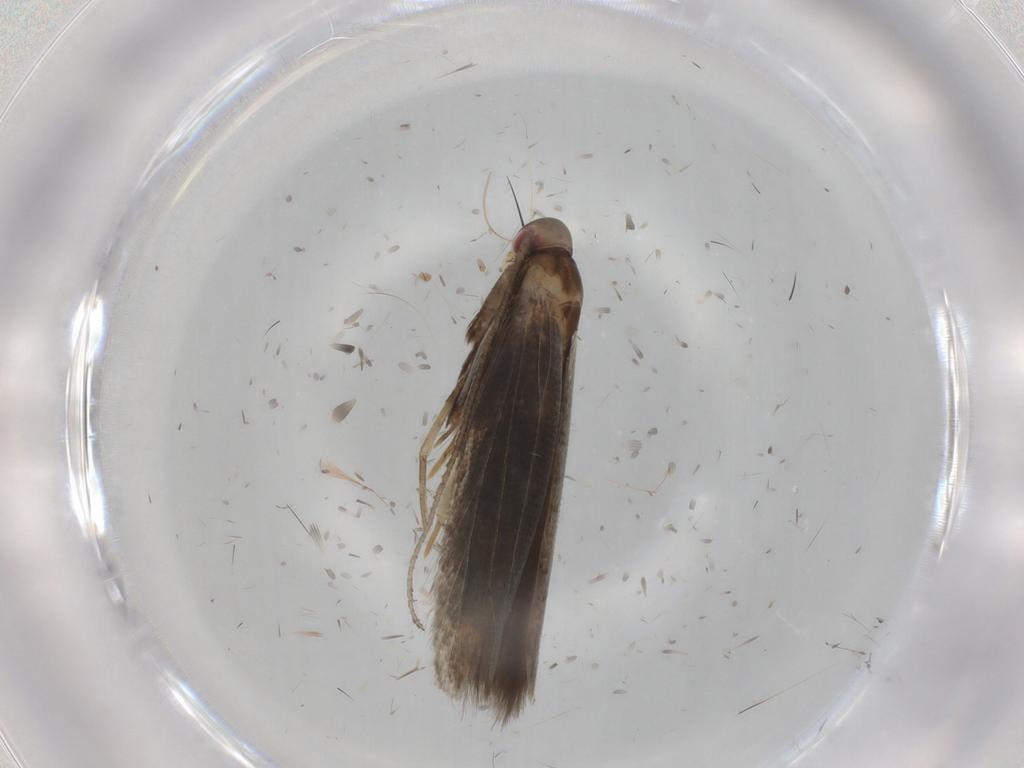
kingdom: Animalia
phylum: Arthropoda
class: Insecta
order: Lepidoptera
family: Momphidae
